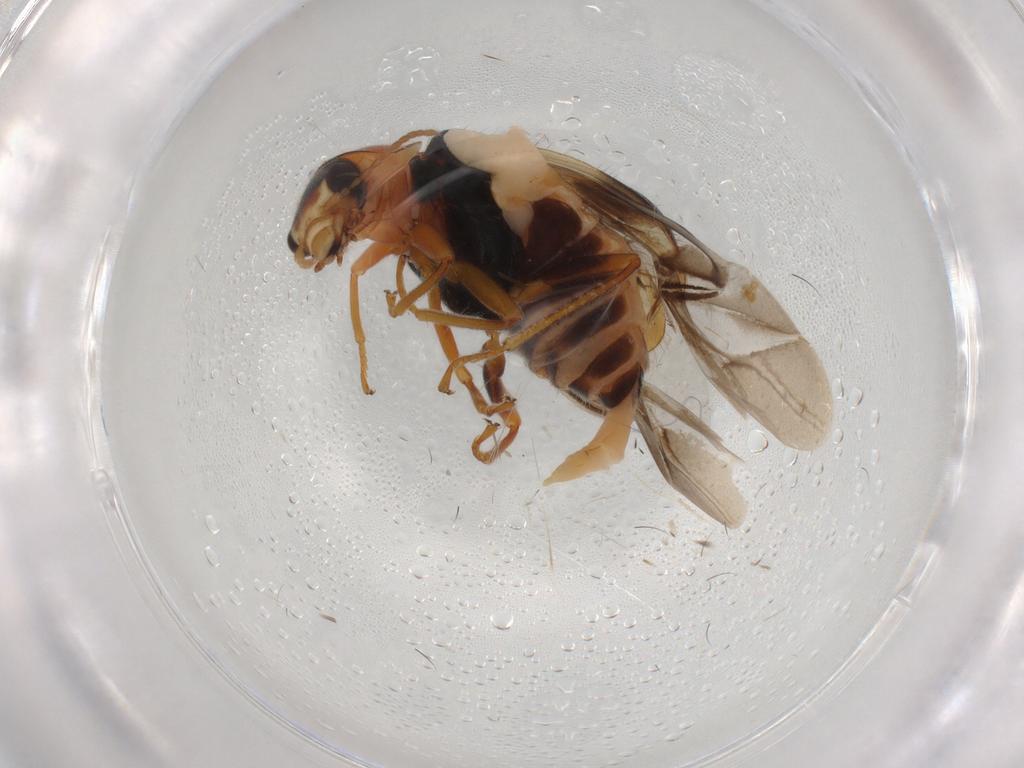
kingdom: Animalia
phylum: Arthropoda
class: Insecta
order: Coleoptera
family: Melyridae
